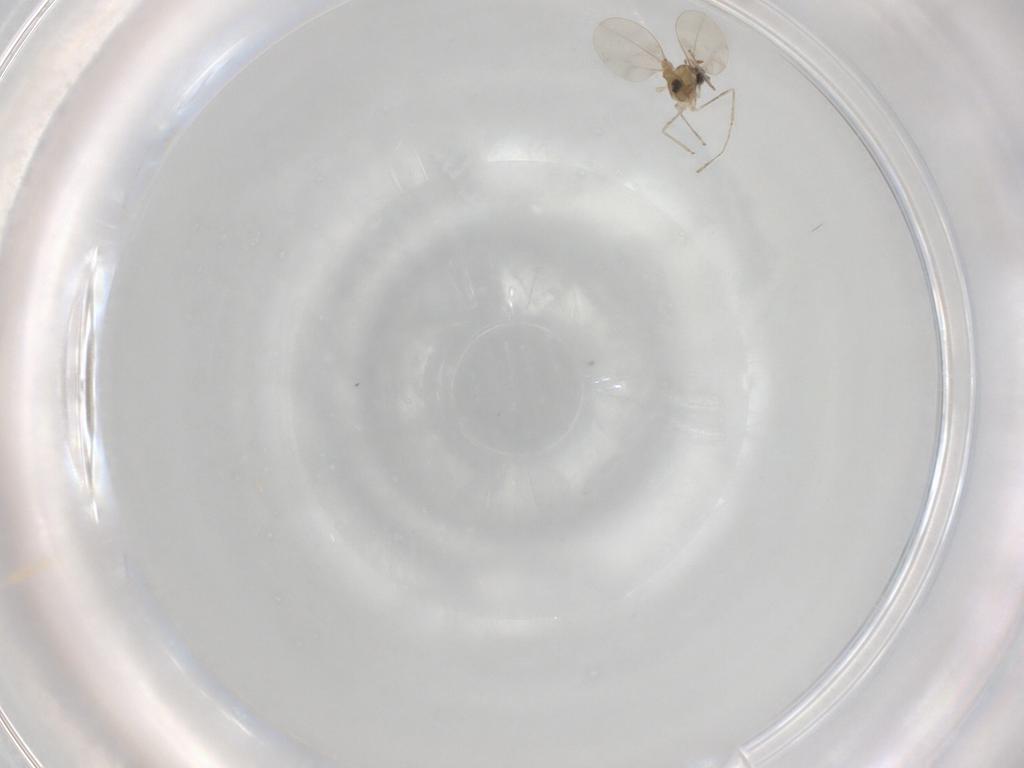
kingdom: Animalia
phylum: Arthropoda
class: Insecta
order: Diptera
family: Cecidomyiidae
